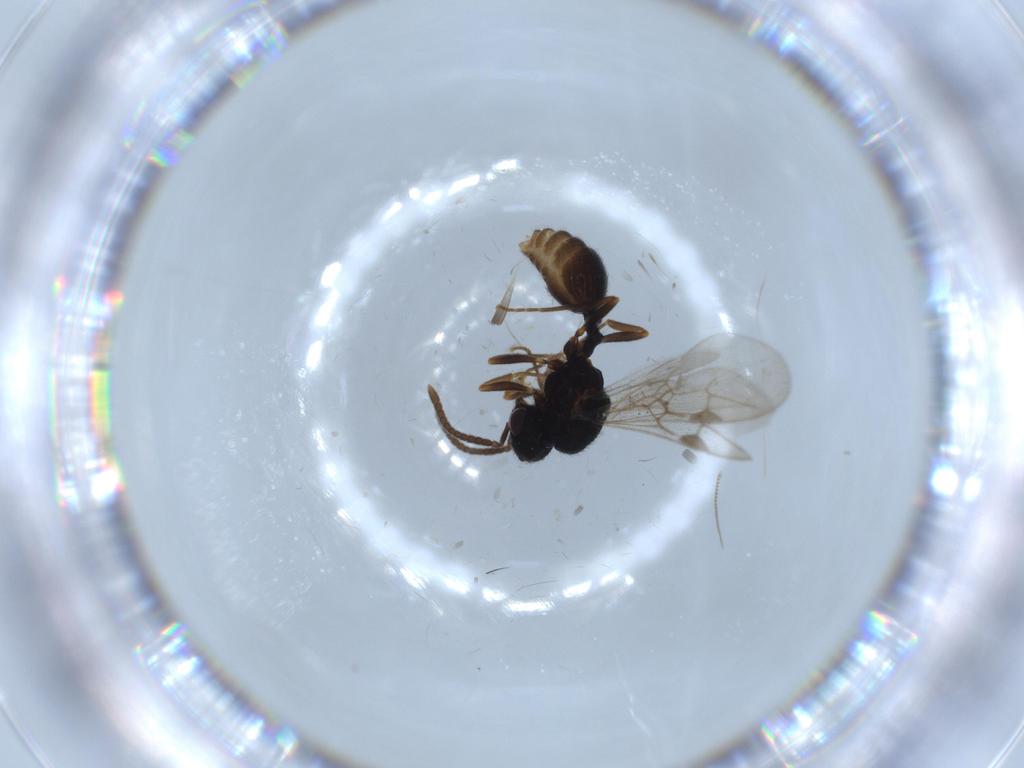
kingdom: Animalia
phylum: Arthropoda
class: Insecta
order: Hymenoptera
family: Formicidae
